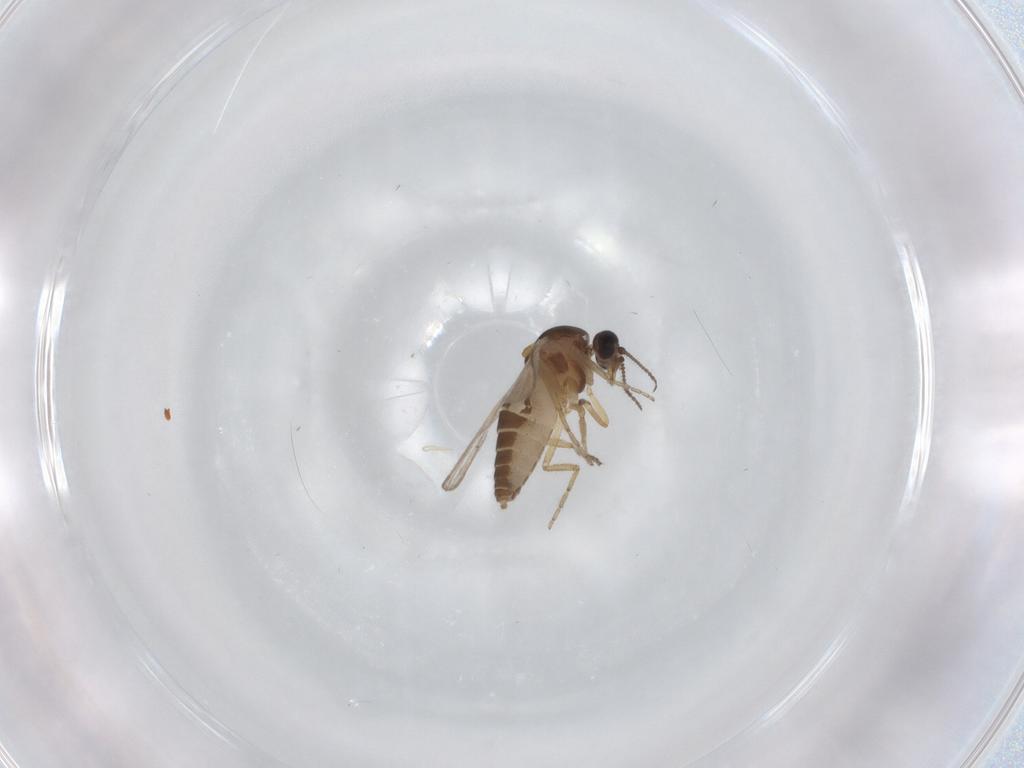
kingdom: Animalia
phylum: Arthropoda
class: Insecta
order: Diptera
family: Ceratopogonidae
